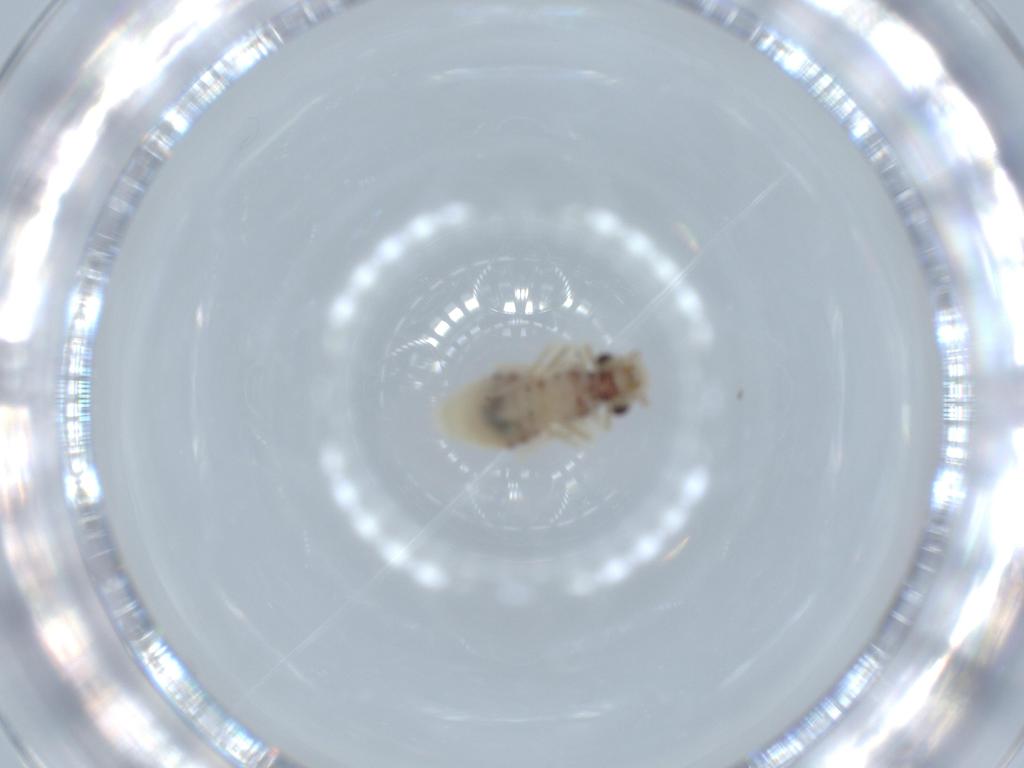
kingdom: Animalia
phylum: Arthropoda
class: Insecta
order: Psocodea
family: Caeciliusidae
